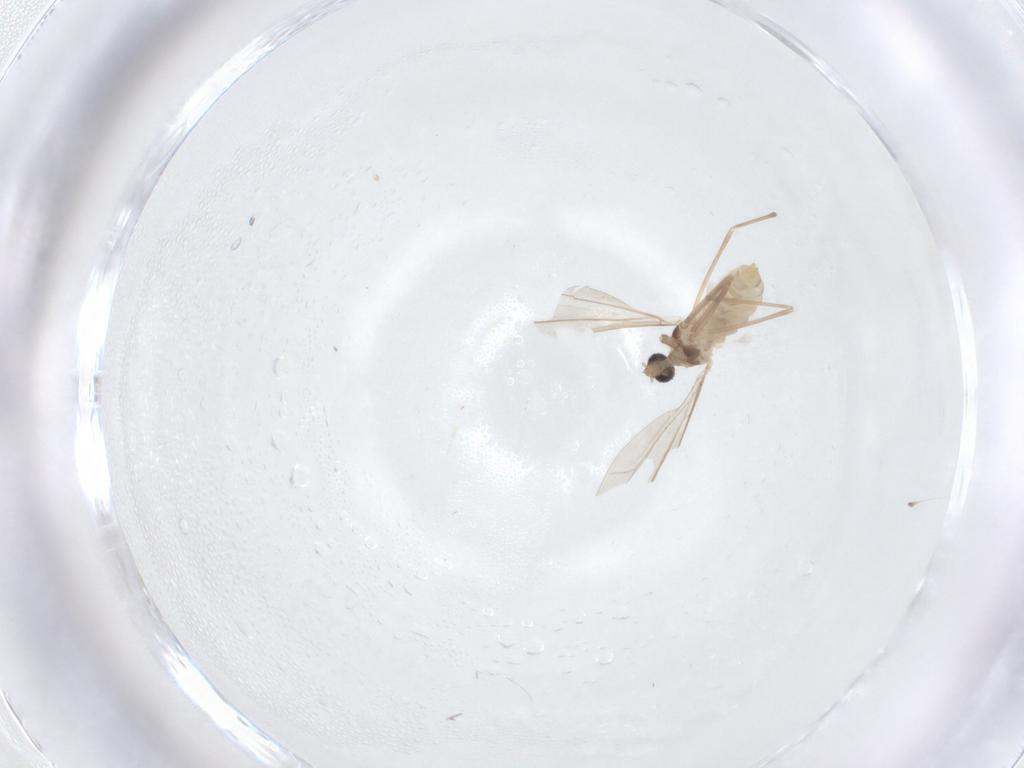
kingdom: Animalia
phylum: Arthropoda
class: Insecta
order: Diptera
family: Cecidomyiidae
